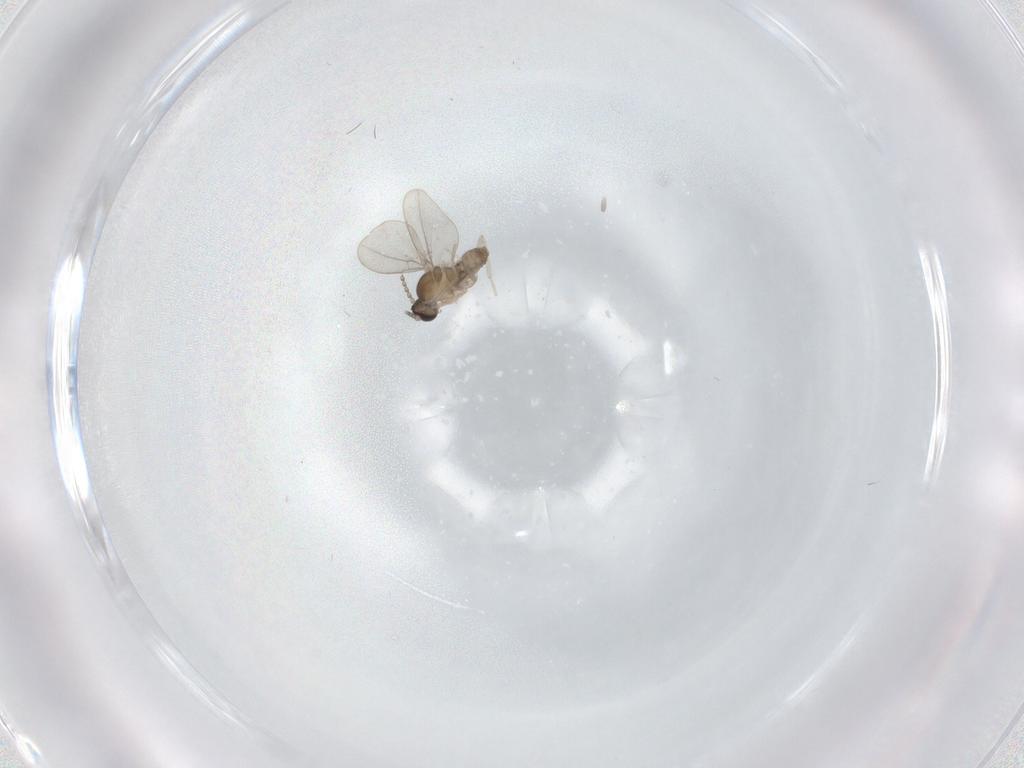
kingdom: Animalia
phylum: Arthropoda
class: Insecta
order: Diptera
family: Cecidomyiidae
